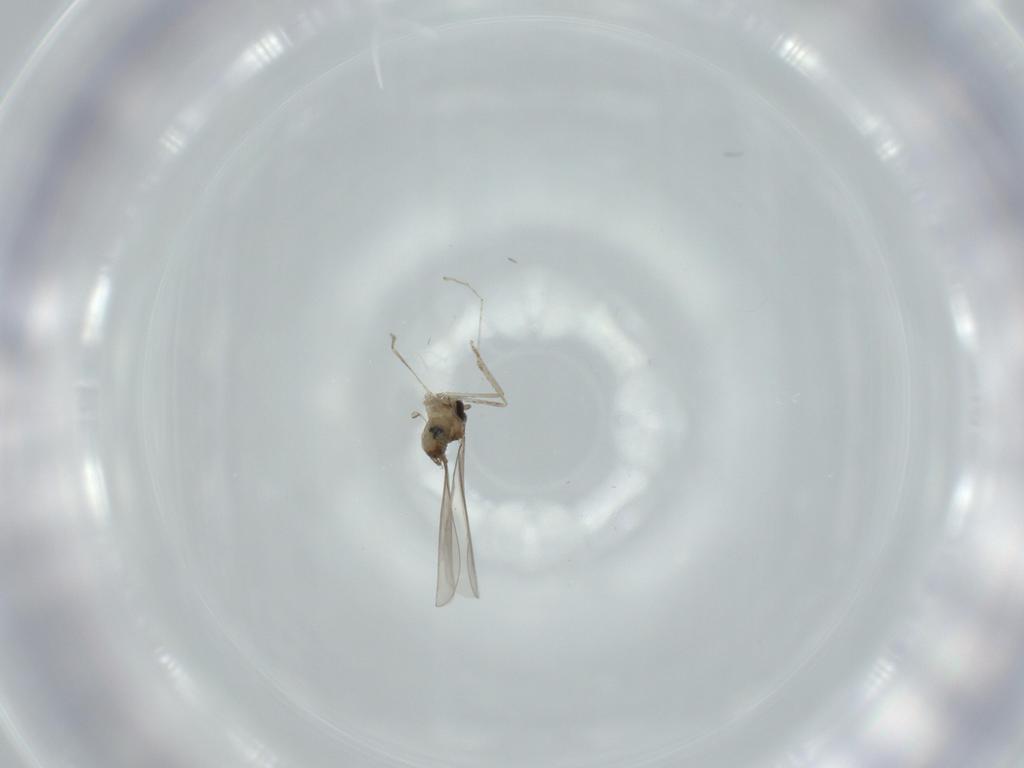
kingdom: Animalia
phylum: Arthropoda
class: Insecta
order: Diptera
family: Cecidomyiidae
